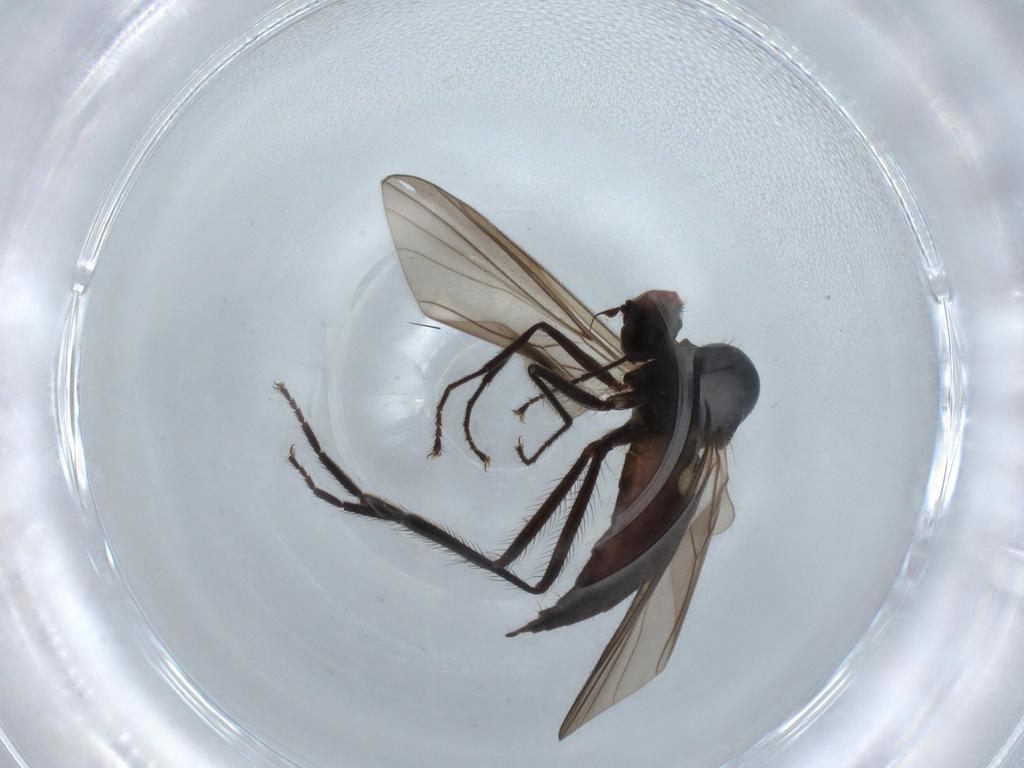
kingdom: Animalia
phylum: Arthropoda
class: Insecta
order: Diptera
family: Hybotidae
